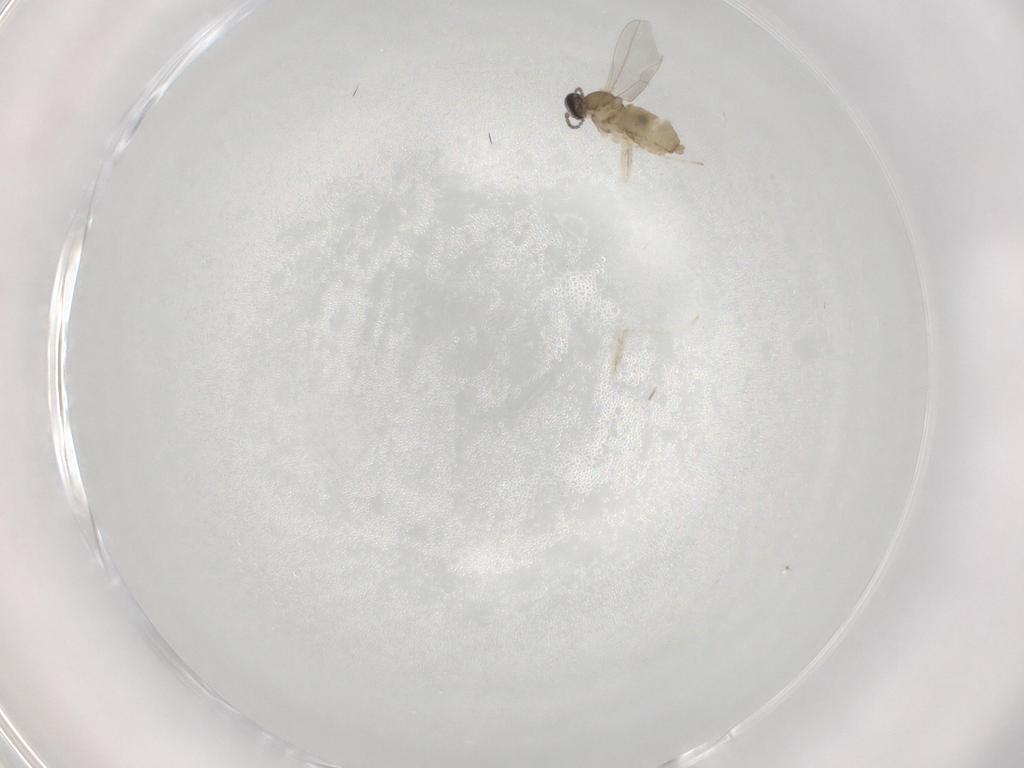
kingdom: Animalia
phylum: Arthropoda
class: Insecta
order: Diptera
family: Cecidomyiidae
